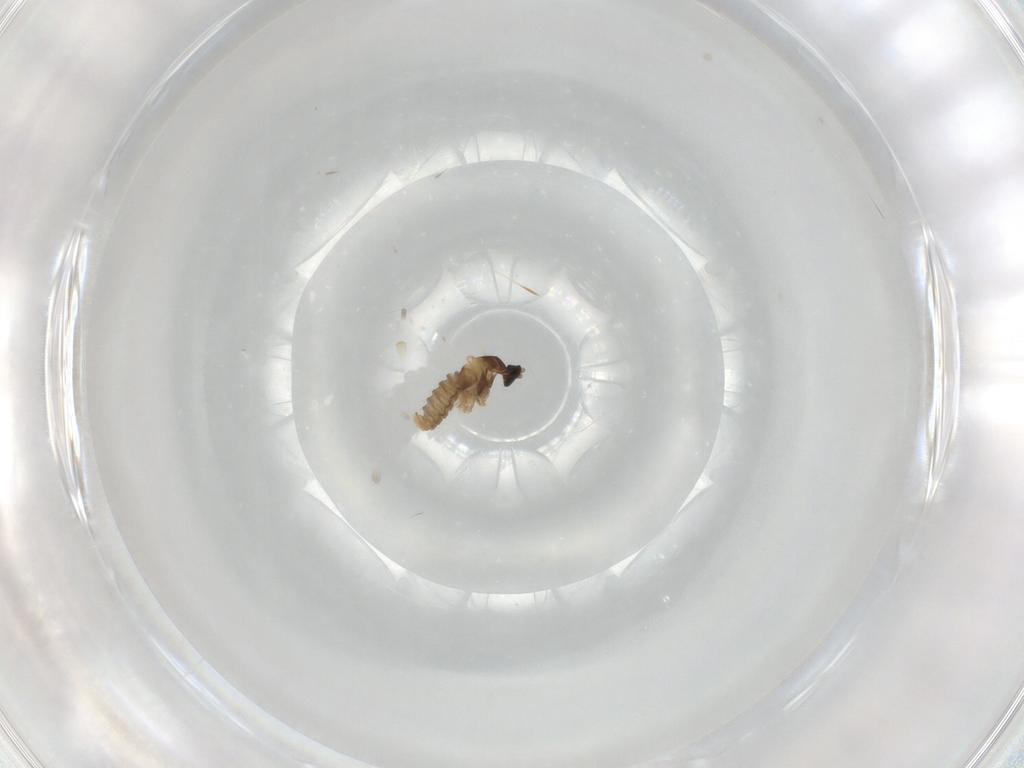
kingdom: Animalia
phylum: Arthropoda
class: Insecta
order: Diptera
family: Cecidomyiidae
